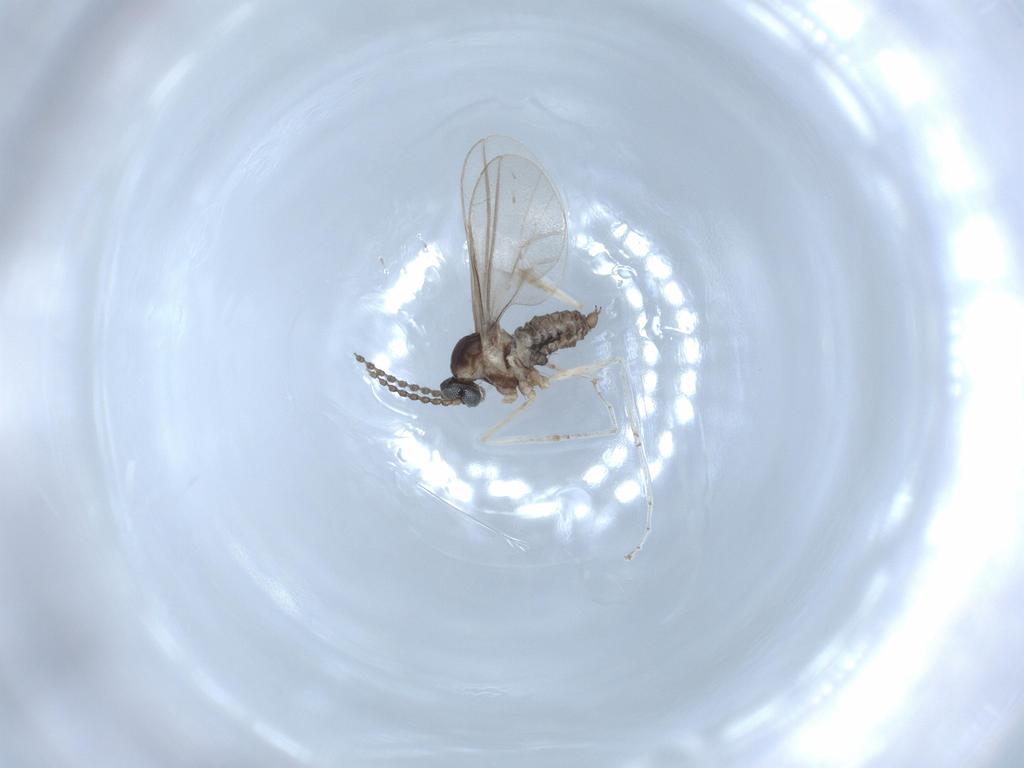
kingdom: Animalia
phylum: Arthropoda
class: Insecta
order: Diptera
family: Cecidomyiidae
